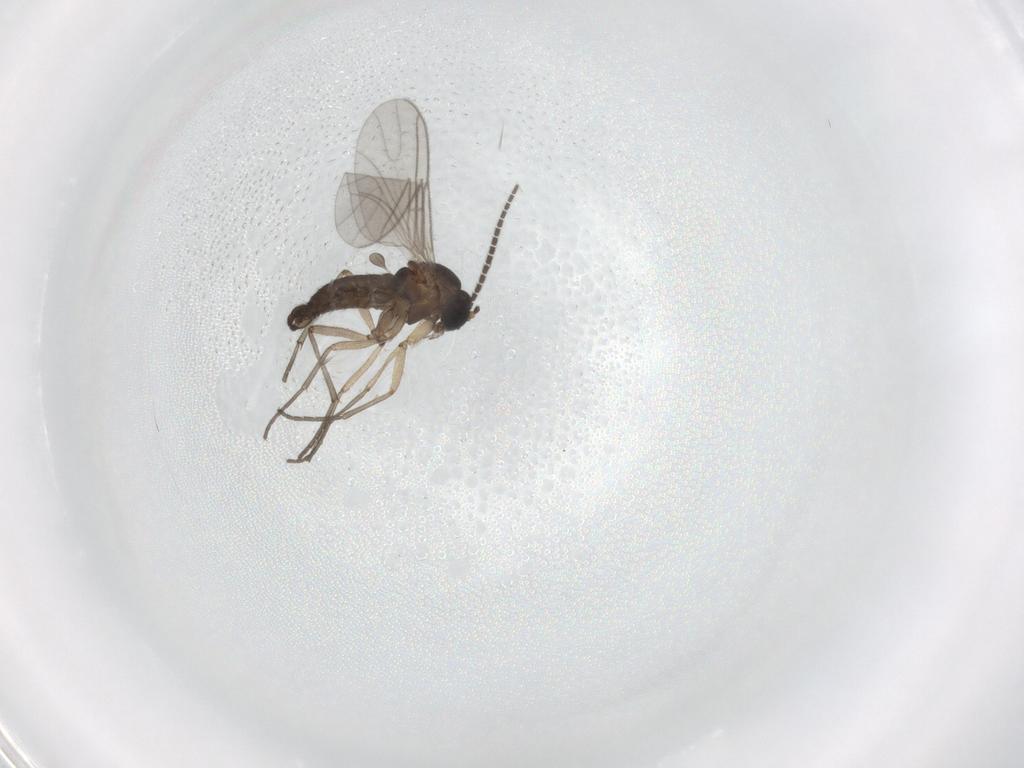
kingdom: Animalia
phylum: Arthropoda
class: Insecta
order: Diptera
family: Sciaridae
